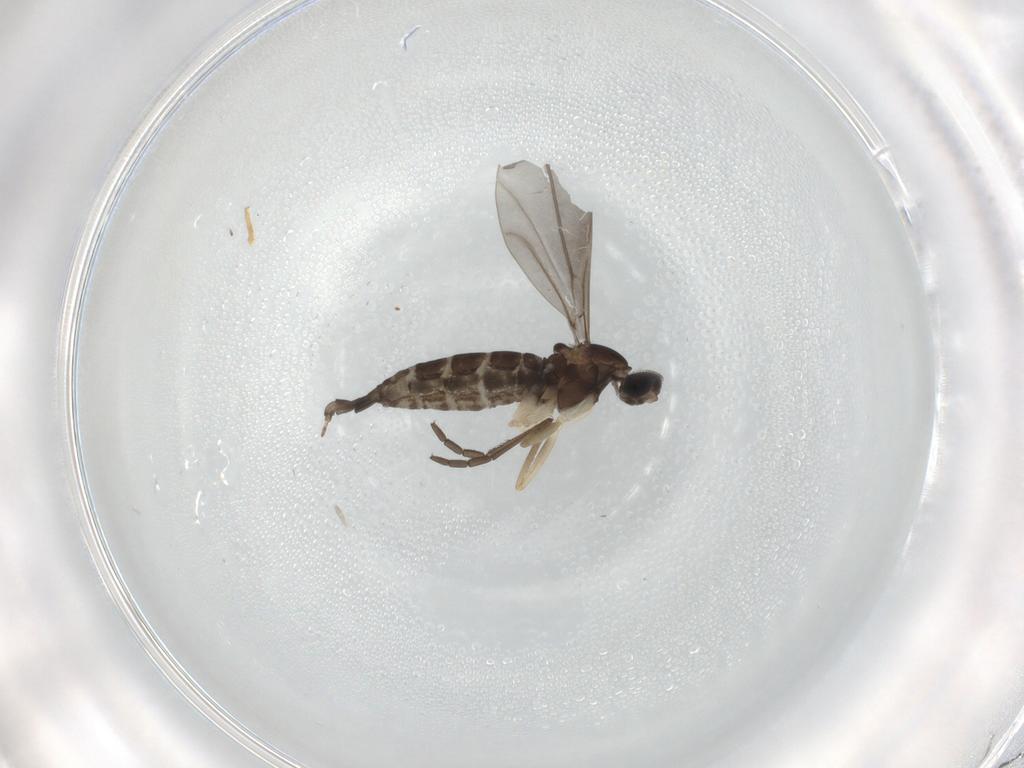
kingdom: Animalia
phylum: Arthropoda
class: Insecta
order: Diptera
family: Cecidomyiidae
